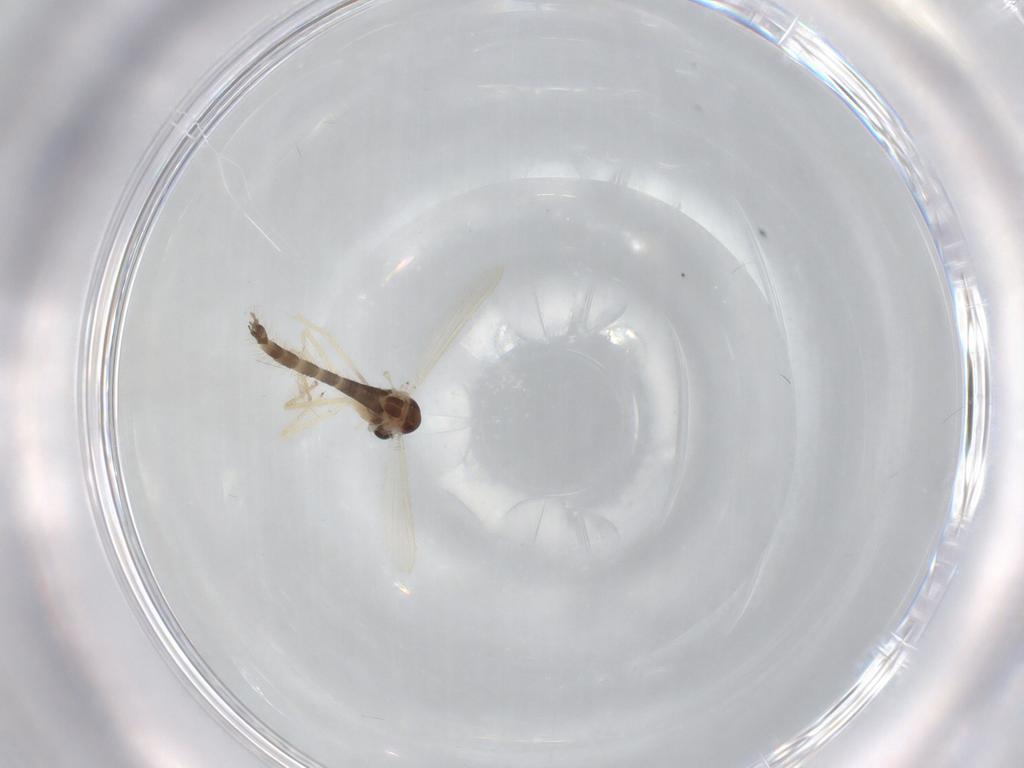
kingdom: Animalia
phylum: Arthropoda
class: Insecta
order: Diptera
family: Chironomidae
